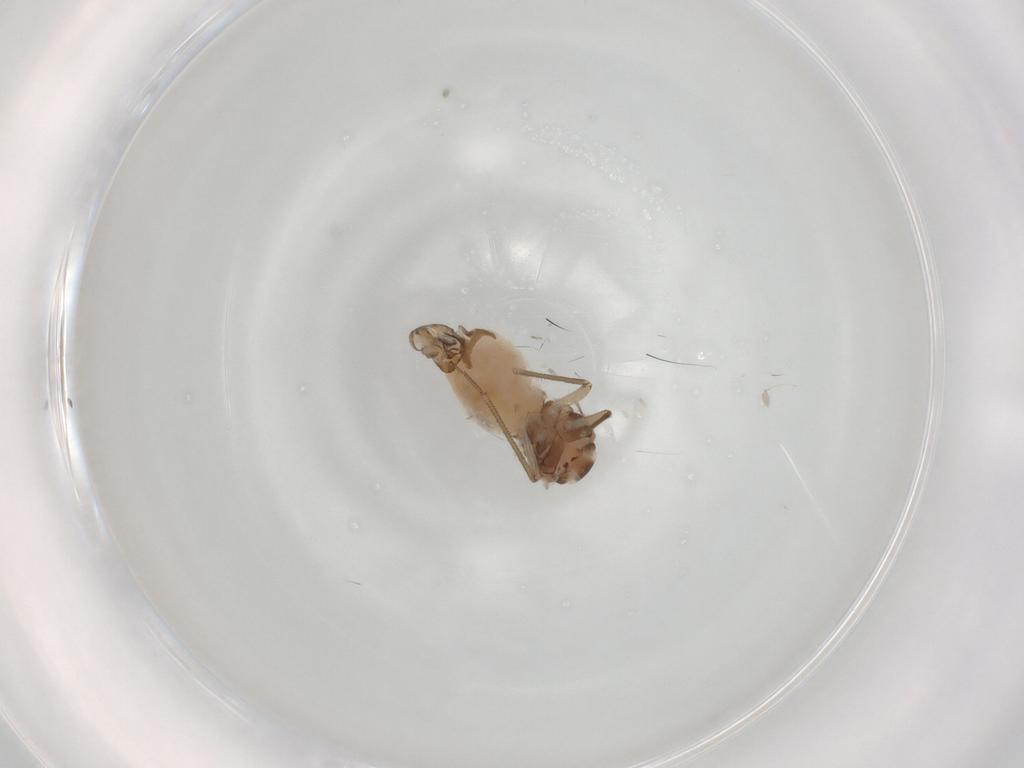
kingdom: Animalia
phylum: Arthropoda
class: Insecta
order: Psocodea
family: Peripsocidae
